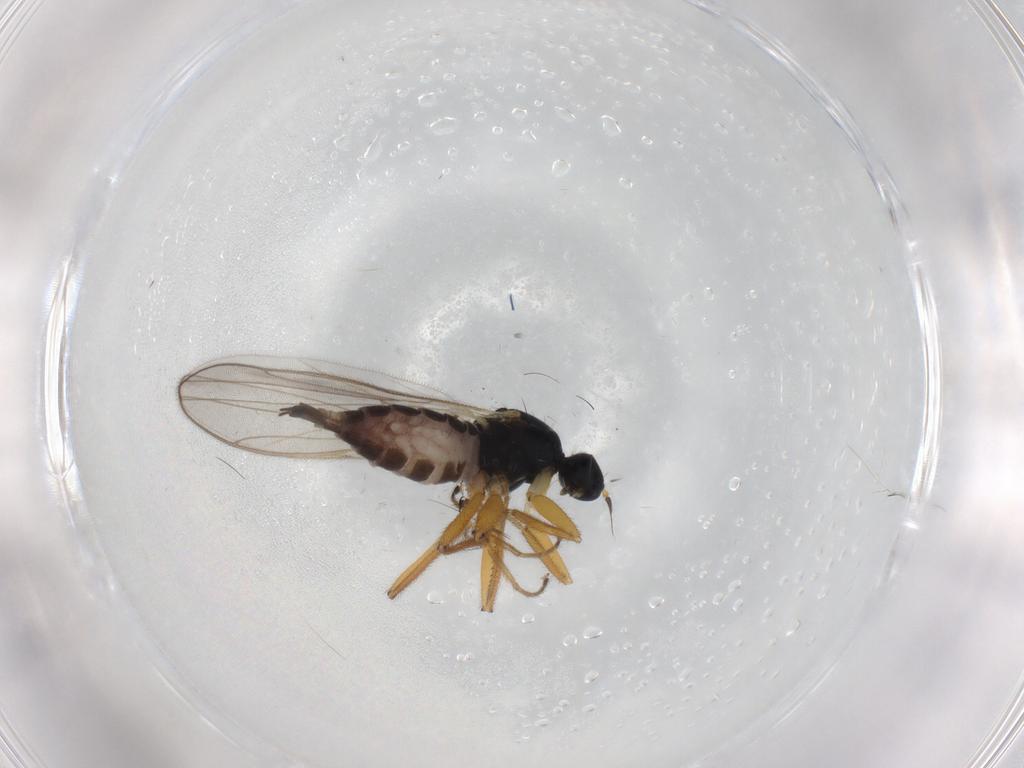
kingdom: Animalia
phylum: Arthropoda
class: Insecta
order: Diptera
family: Hybotidae
